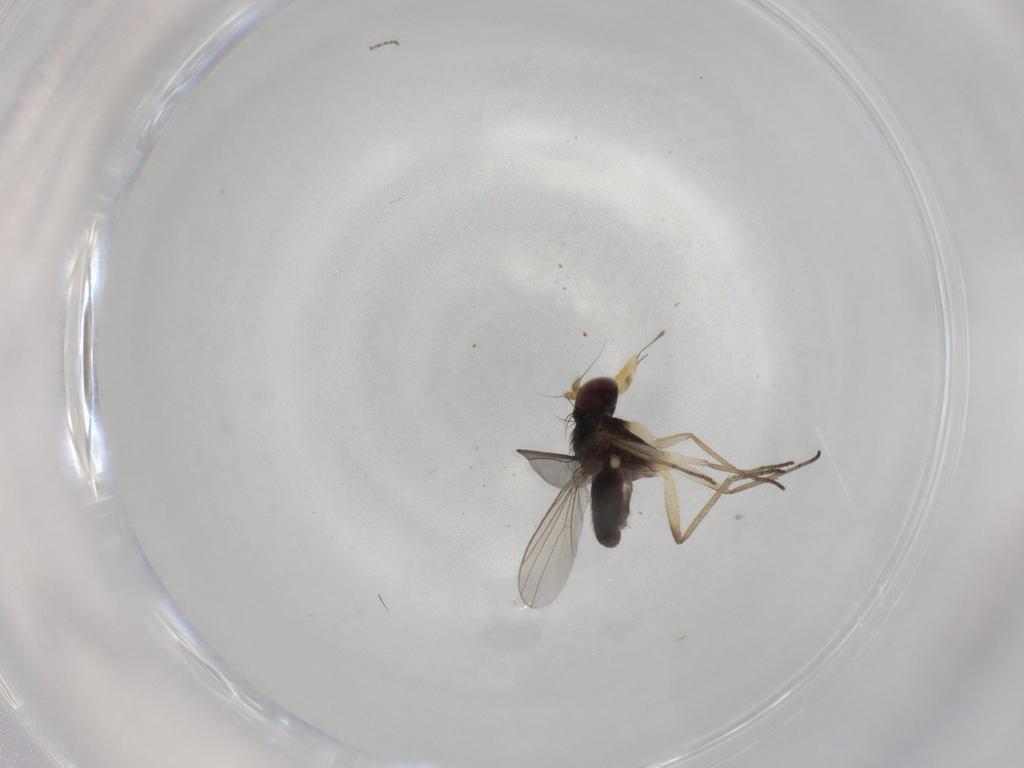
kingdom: Animalia
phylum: Arthropoda
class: Insecta
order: Diptera
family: Dolichopodidae
